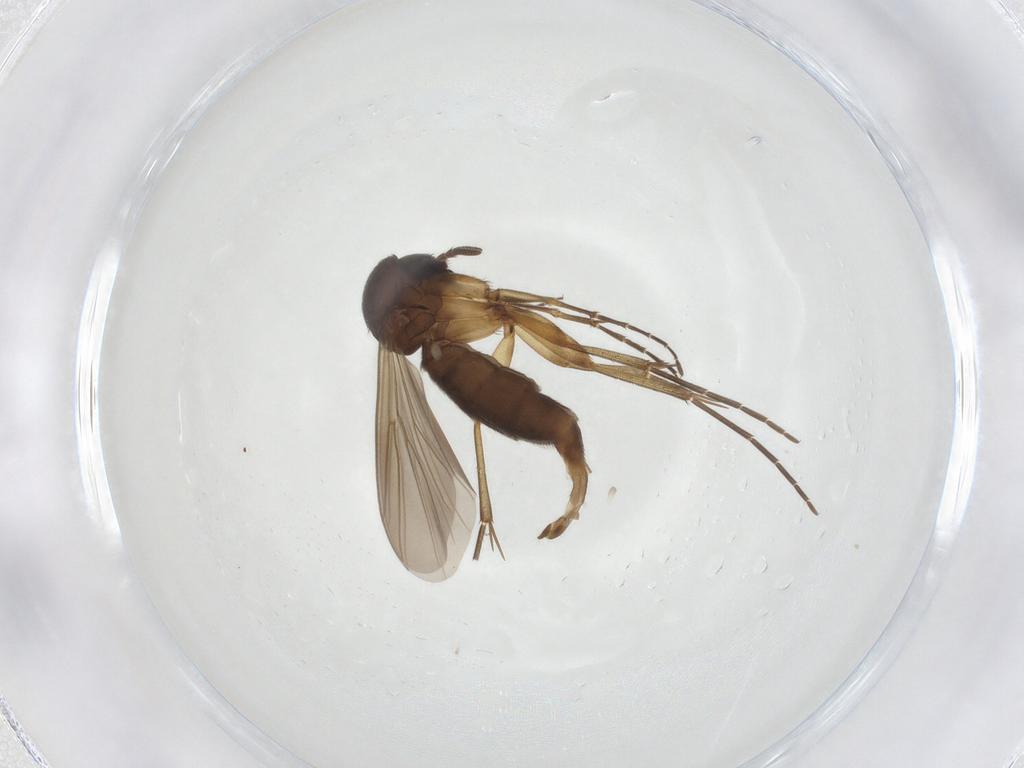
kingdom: Animalia
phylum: Arthropoda
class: Insecta
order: Diptera
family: Mycetophilidae
